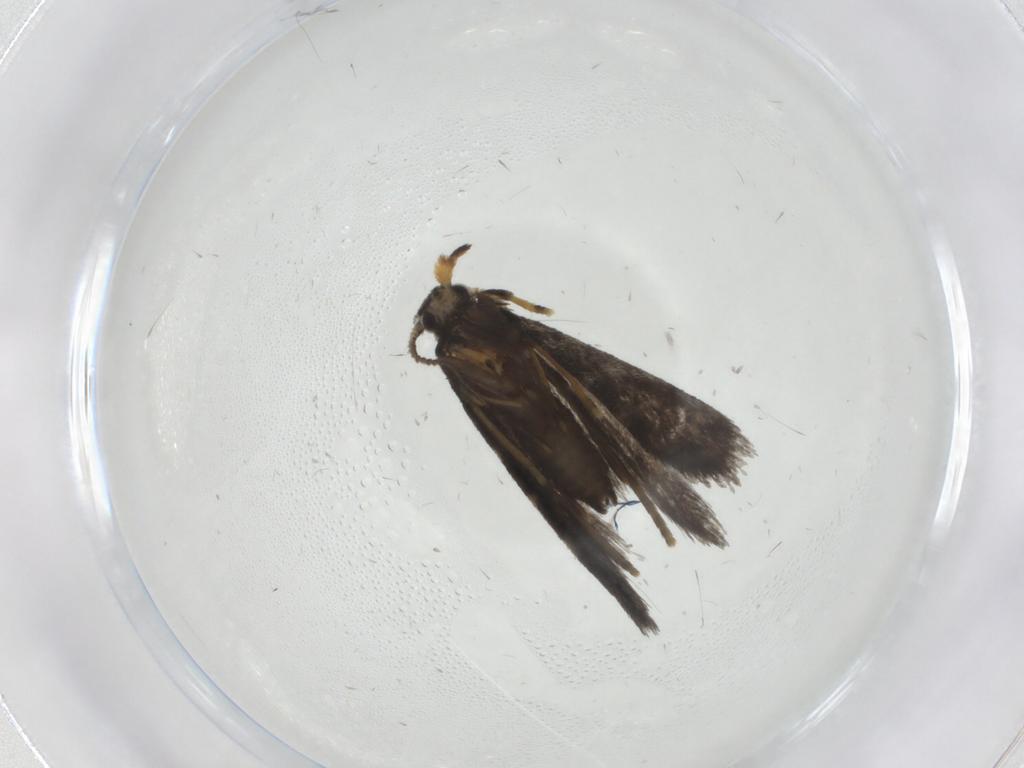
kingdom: Animalia
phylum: Arthropoda
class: Insecta
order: Lepidoptera
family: Psychidae
